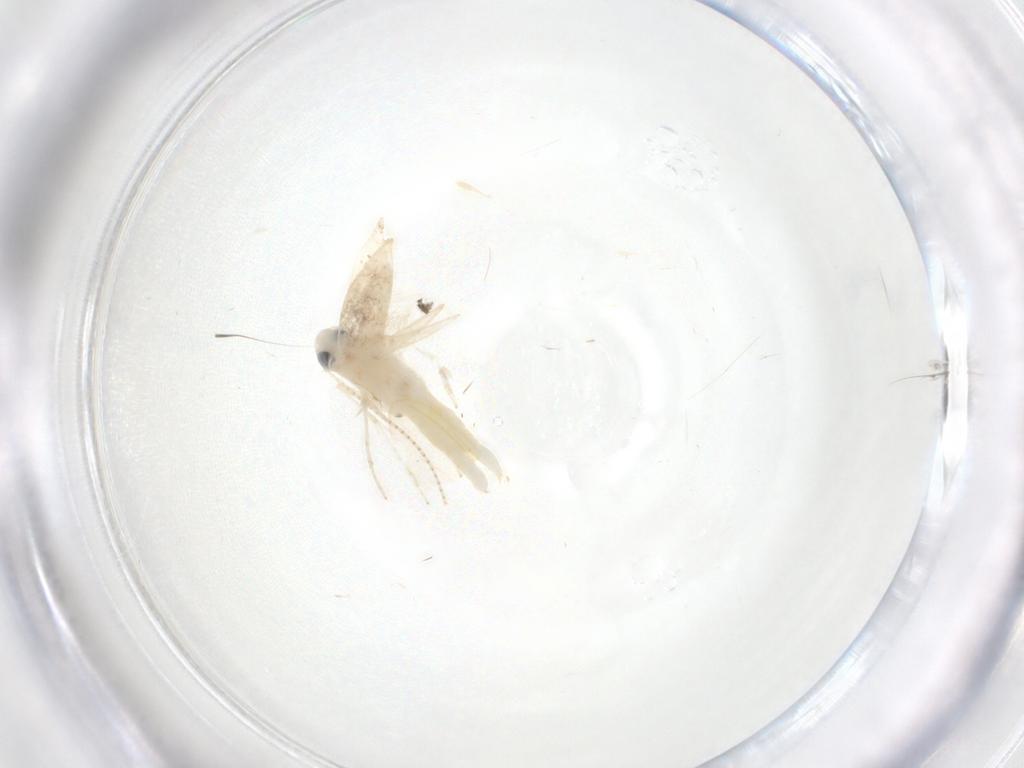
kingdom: Animalia
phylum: Arthropoda
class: Insecta
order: Lepidoptera
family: Gracillariidae
